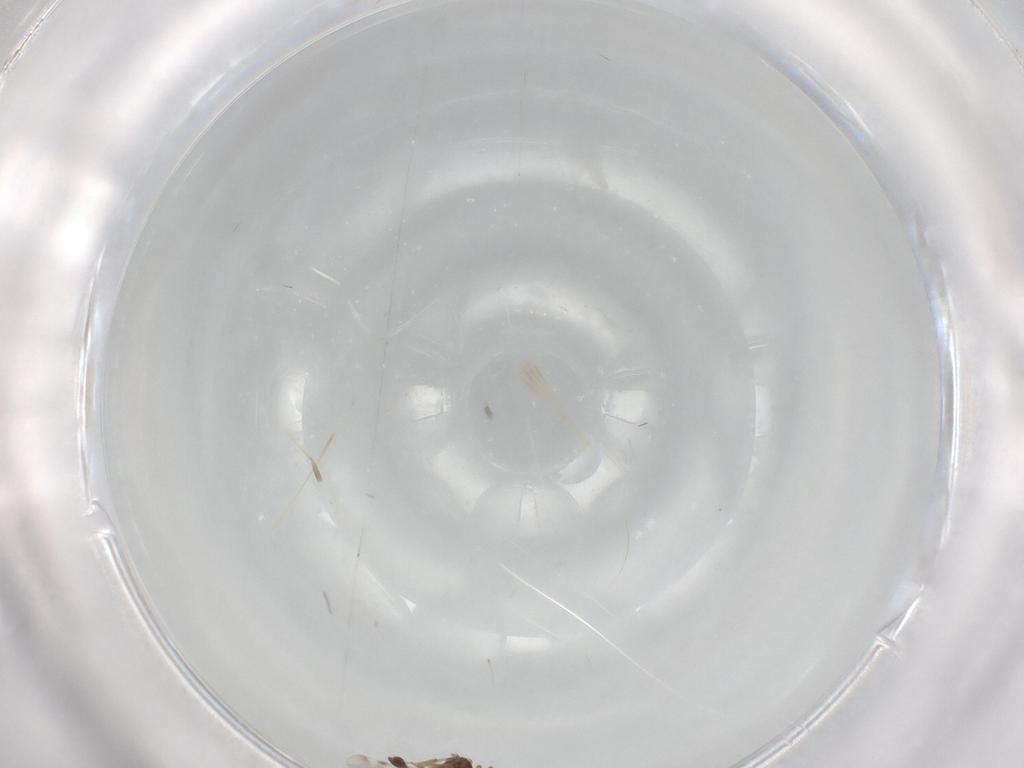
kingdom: Animalia
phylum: Arthropoda
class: Insecta
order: Diptera
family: Ceratopogonidae
